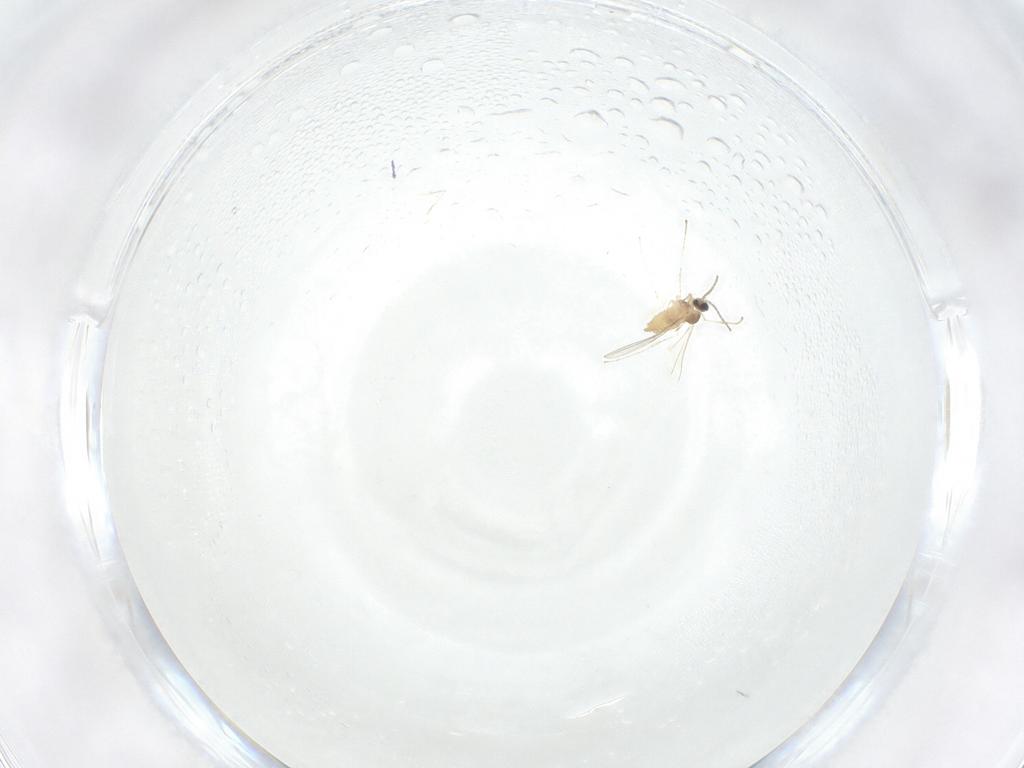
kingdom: Animalia
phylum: Arthropoda
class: Insecta
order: Diptera
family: Cecidomyiidae
